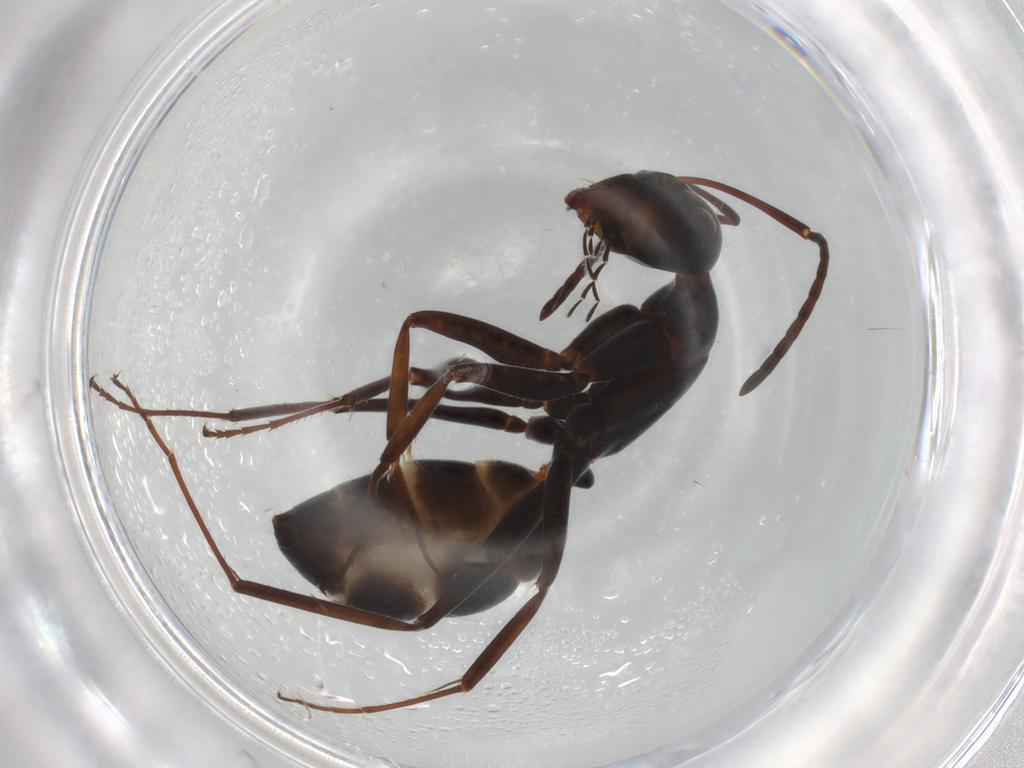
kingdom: Animalia
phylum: Arthropoda
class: Insecta
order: Hymenoptera
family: Formicidae
